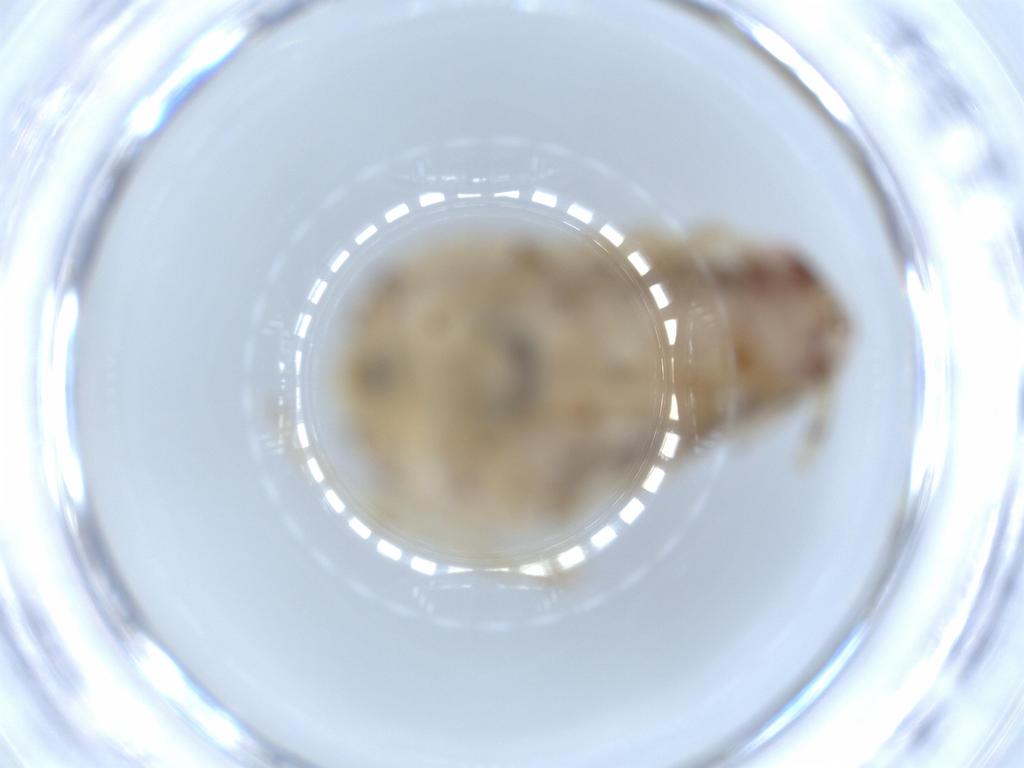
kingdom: Animalia
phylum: Arthropoda
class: Insecta
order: Blattodea
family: Ectobiidae
